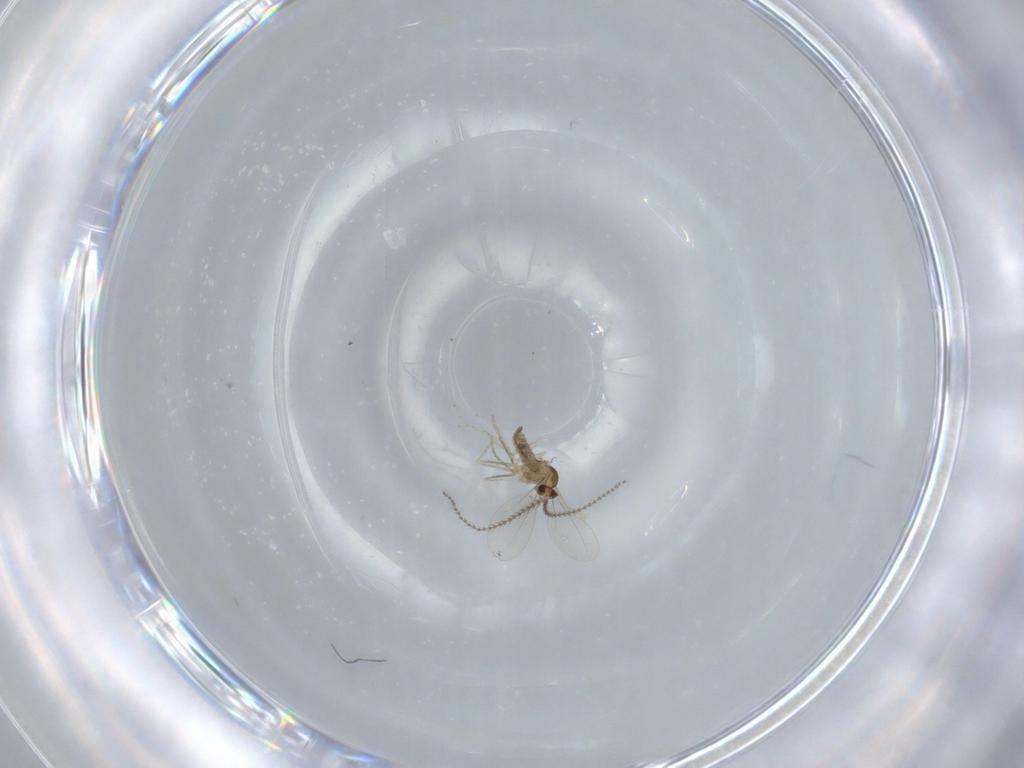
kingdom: Animalia
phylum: Arthropoda
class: Insecta
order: Diptera
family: Cecidomyiidae
